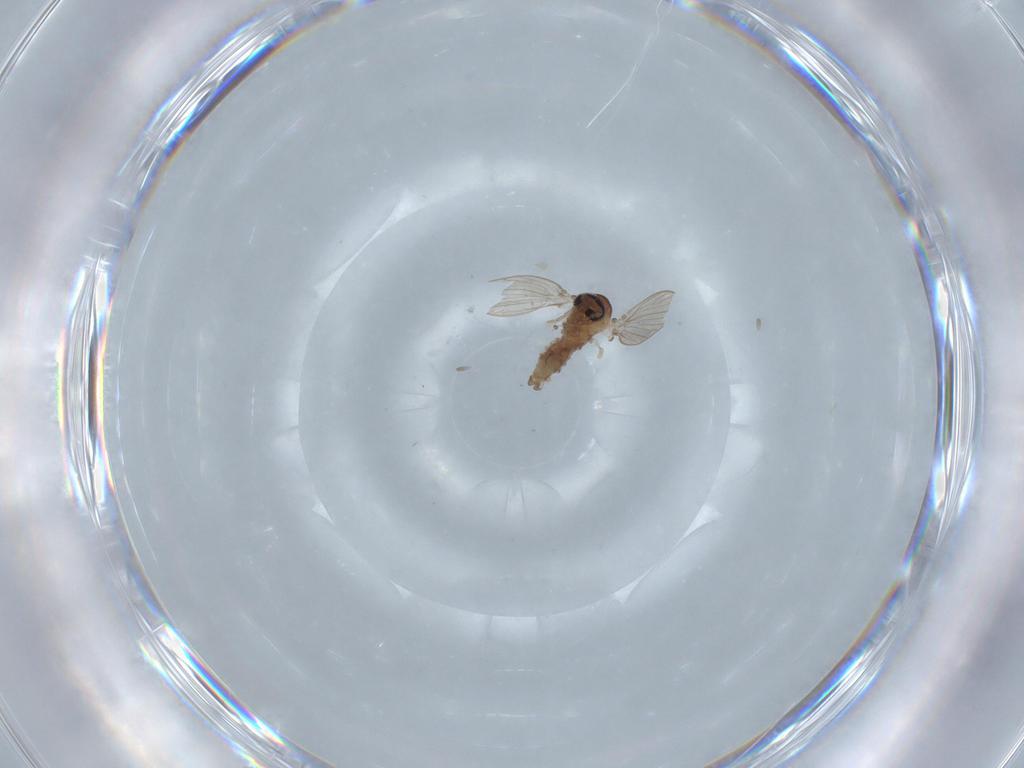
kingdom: Animalia
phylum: Arthropoda
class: Insecta
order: Diptera
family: Psychodidae
